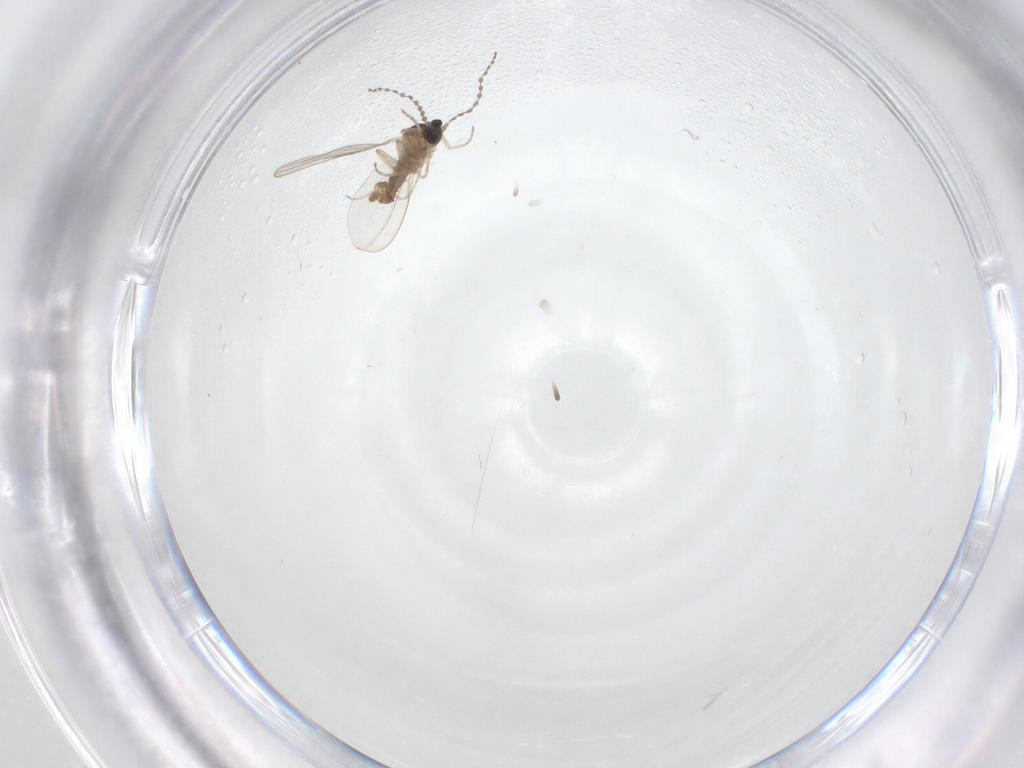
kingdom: Animalia
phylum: Arthropoda
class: Insecta
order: Diptera
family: Cecidomyiidae
